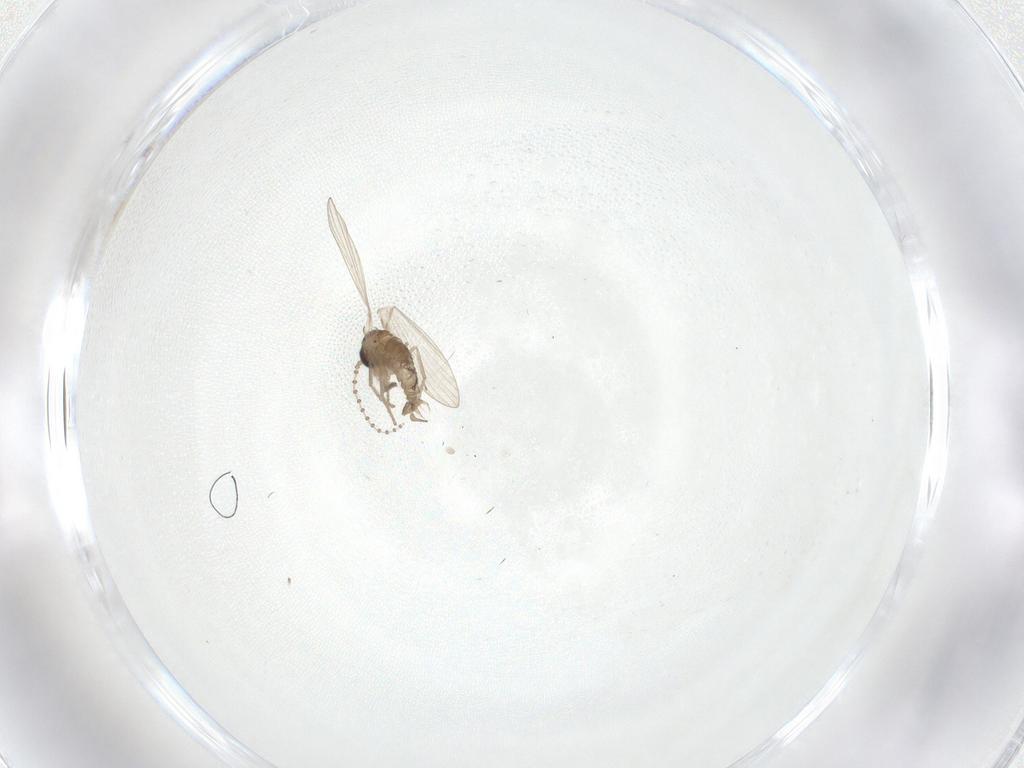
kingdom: Animalia
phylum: Arthropoda
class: Insecta
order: Diptera
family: Psychodidae
